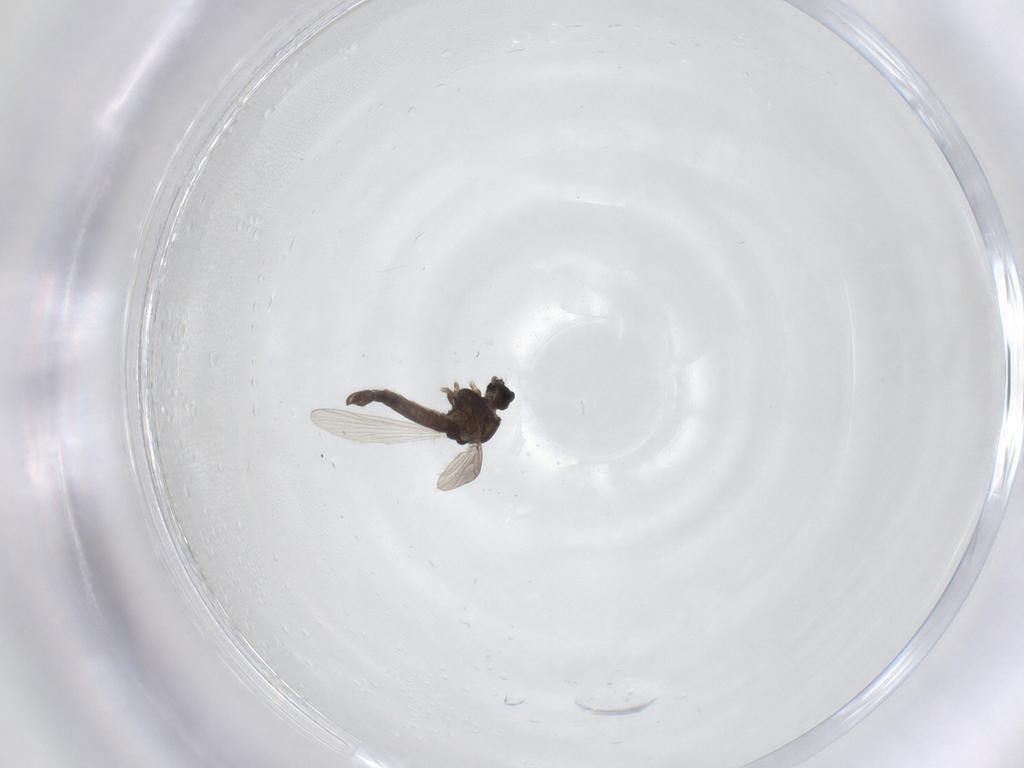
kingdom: Animalia
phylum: Arthropoda
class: Insecta
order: Diptera
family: Chironomidae
